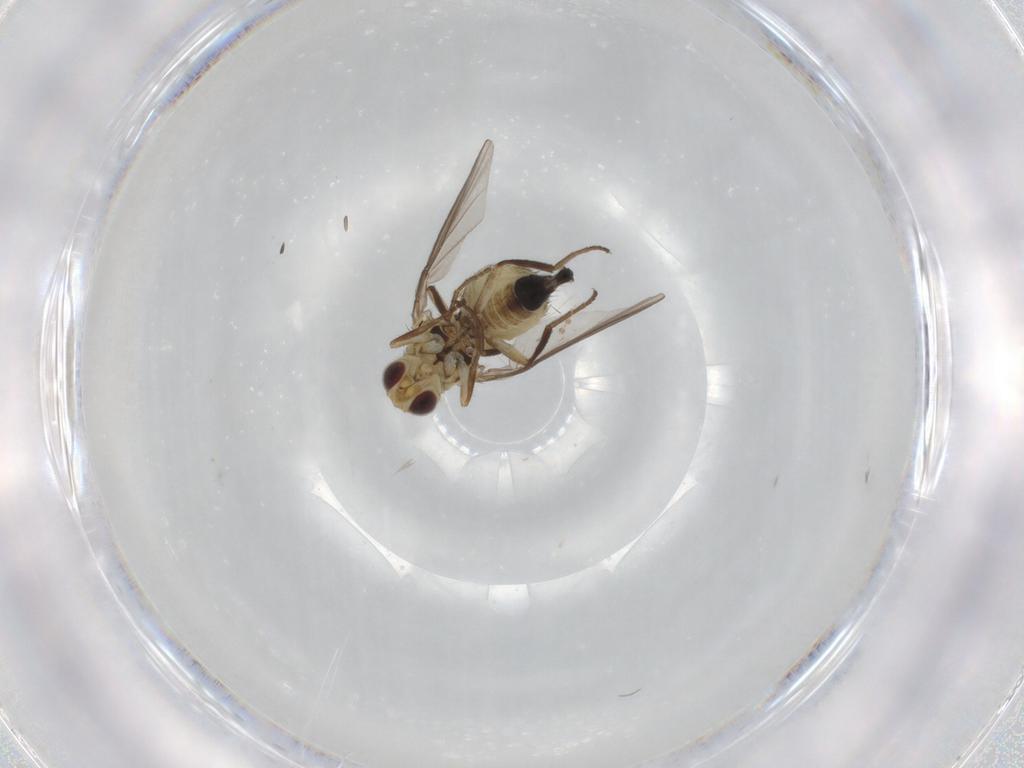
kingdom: Animalia
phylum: Arthropoda
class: Insecta
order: Diptera
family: Agromyzidae
